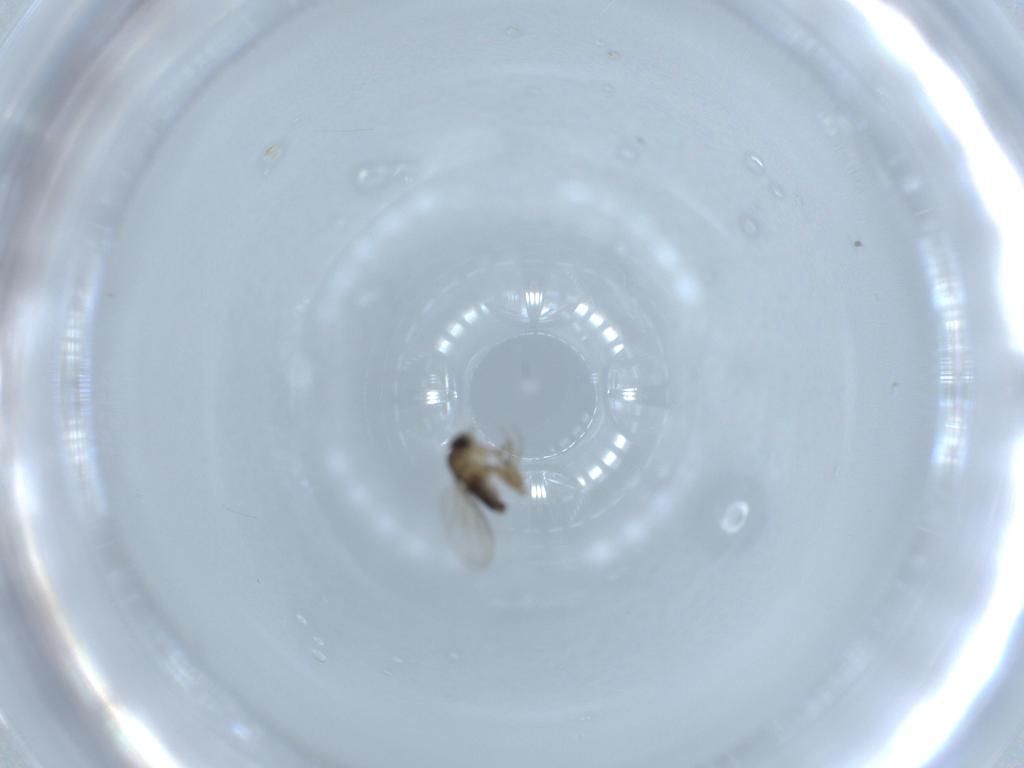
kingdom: Animalia
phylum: Arthropoda
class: Insecta
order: Diptera
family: Phoridae
